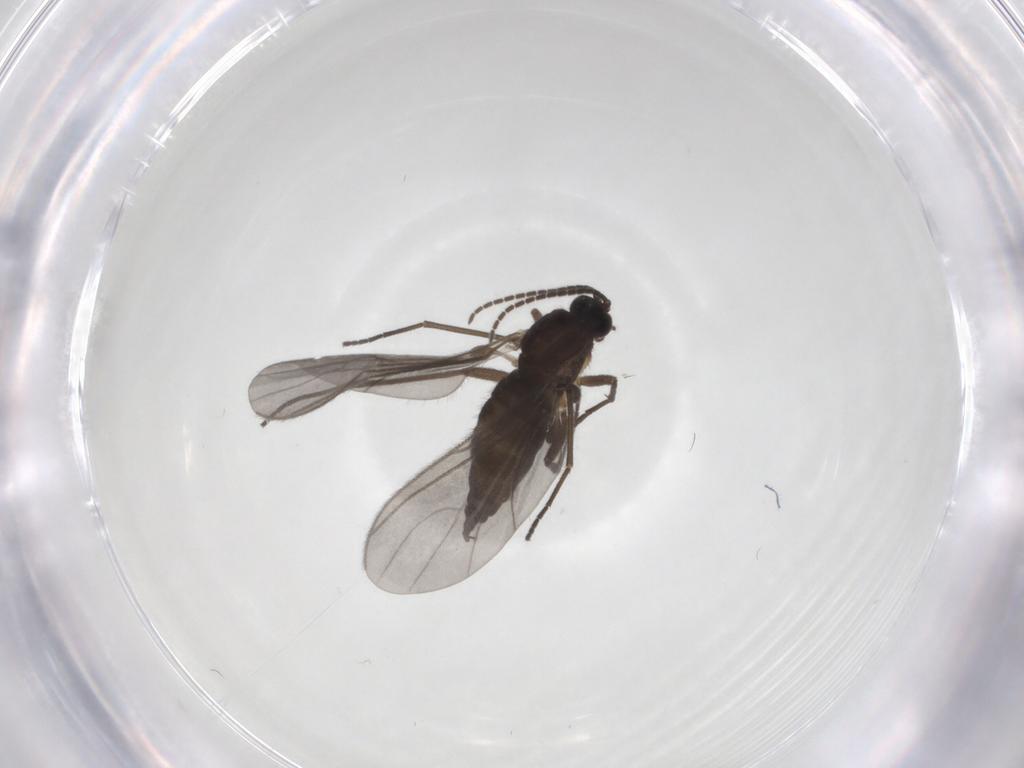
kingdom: Animalia
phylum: Arthropoda
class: Insecta
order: Diptera
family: Sciaridae
